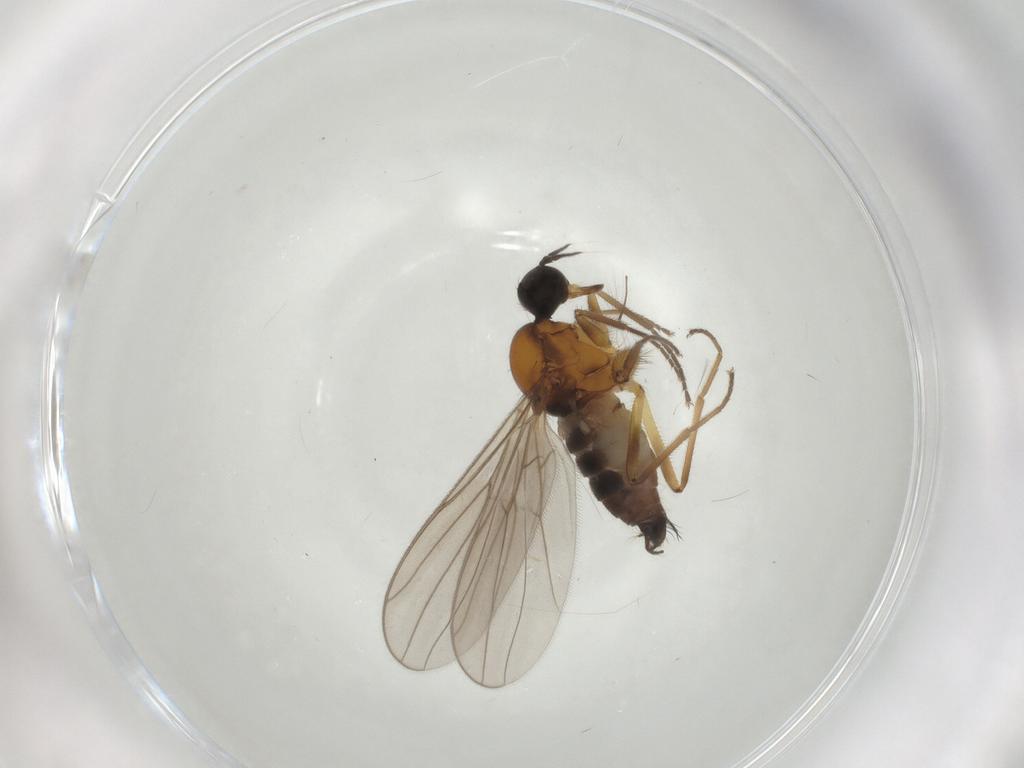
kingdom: Animalia
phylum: Arthropoda
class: Insecta
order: Diptera
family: Hybotidae
